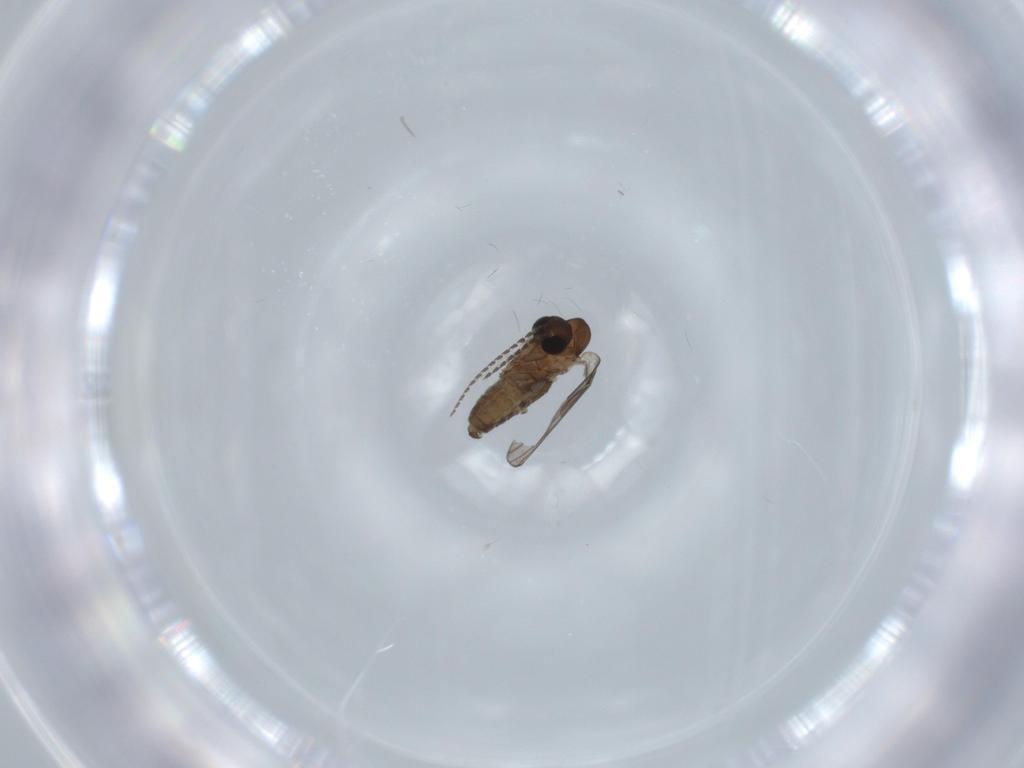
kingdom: Animalia
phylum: Arthropoda
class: Insecta
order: Diptera
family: Psychodidae
